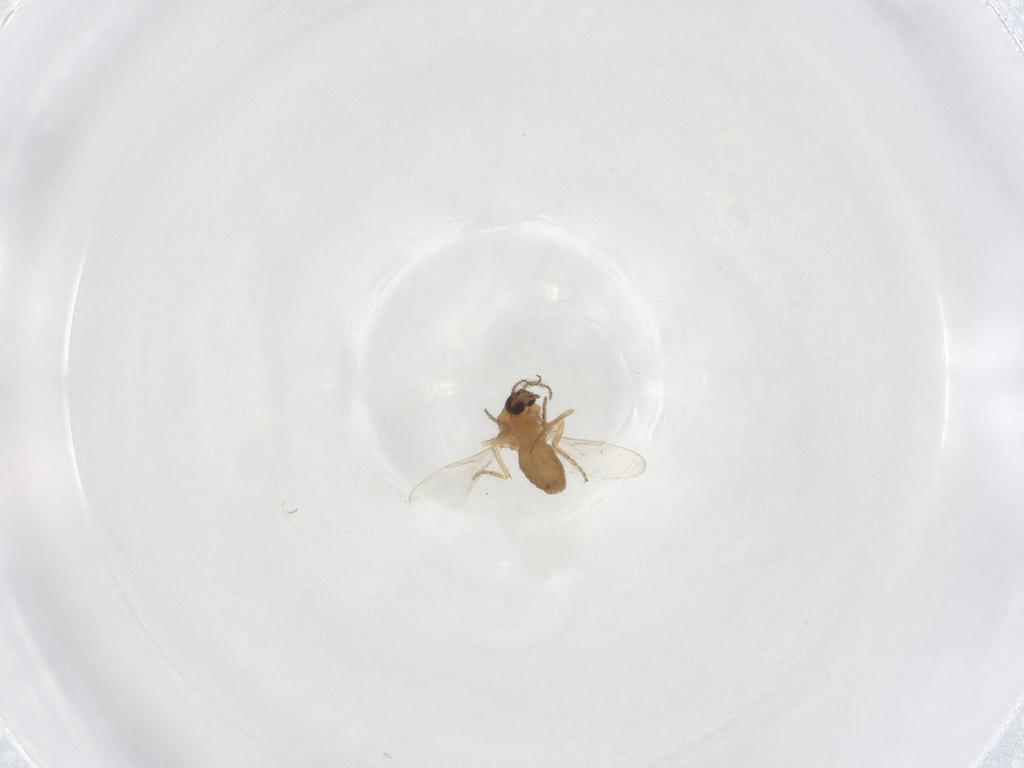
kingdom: Animalia
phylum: Arthropoda
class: Insecta
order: Diptera
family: Ceratopogonidae
